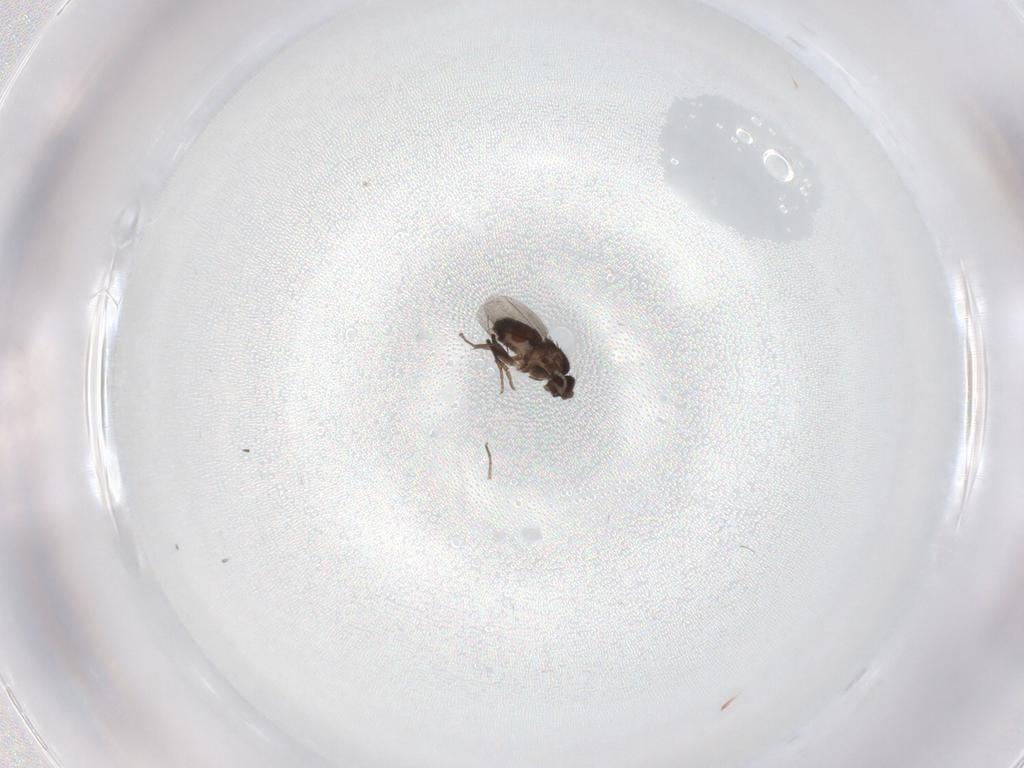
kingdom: Animalia
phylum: Arthropoda
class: Insecta
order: Diptera
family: Cecidomyiidae
